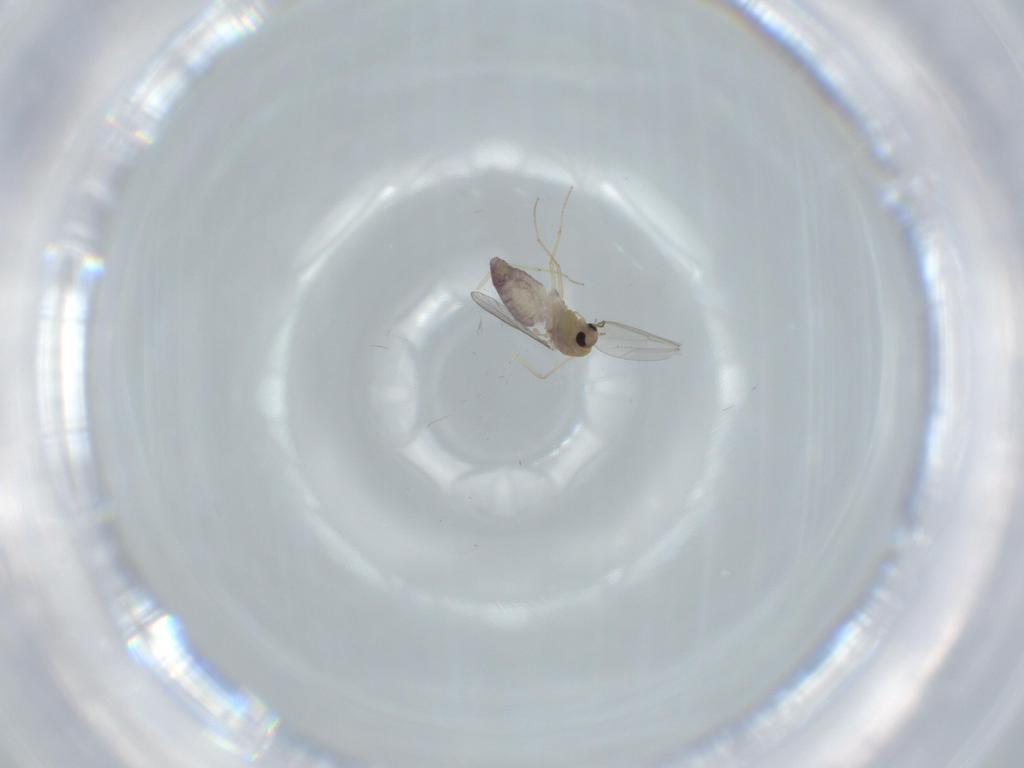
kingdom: Animalia
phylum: Arthropoda
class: Insecta
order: Diptera
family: Chironomidae
